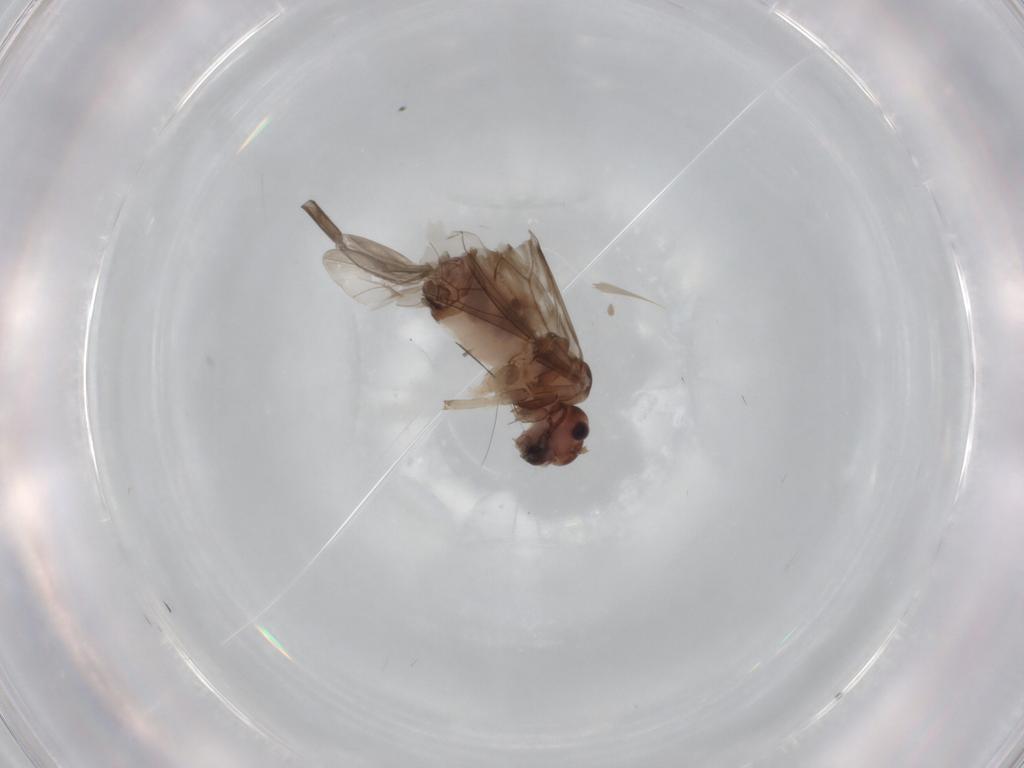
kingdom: Animalia
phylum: Arthropoda
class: Insecta
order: Psocodea
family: Peripsocidae
